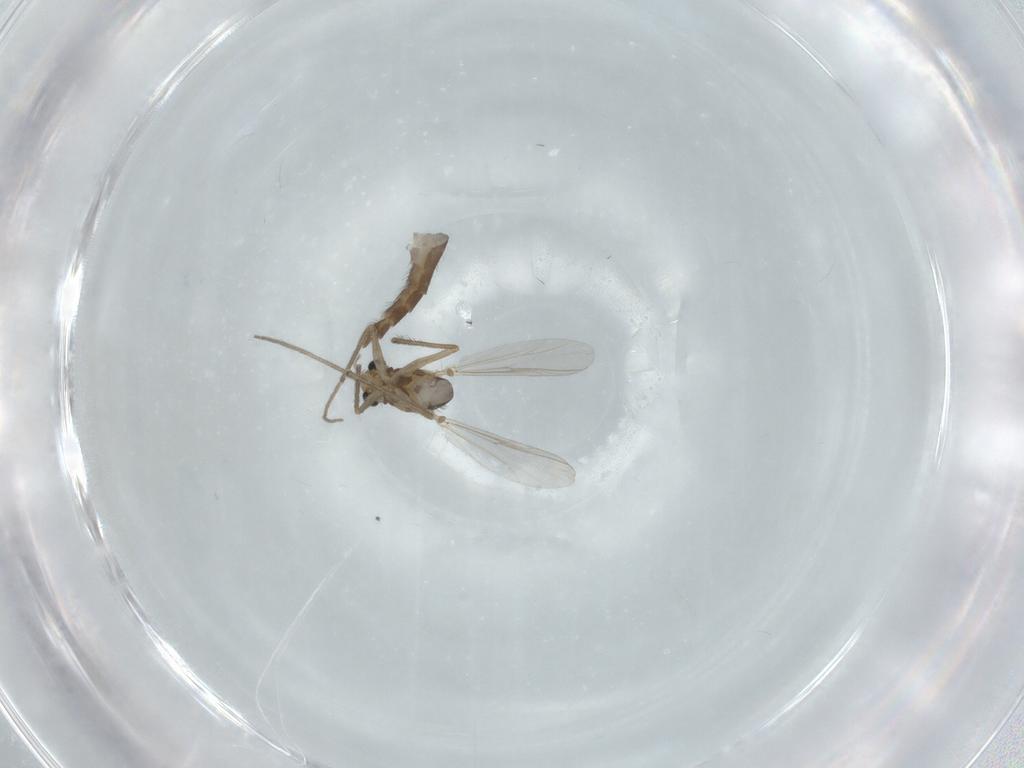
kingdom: Animalia
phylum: Arthropoda
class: Insecta
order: Diptera
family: Chironomidae
